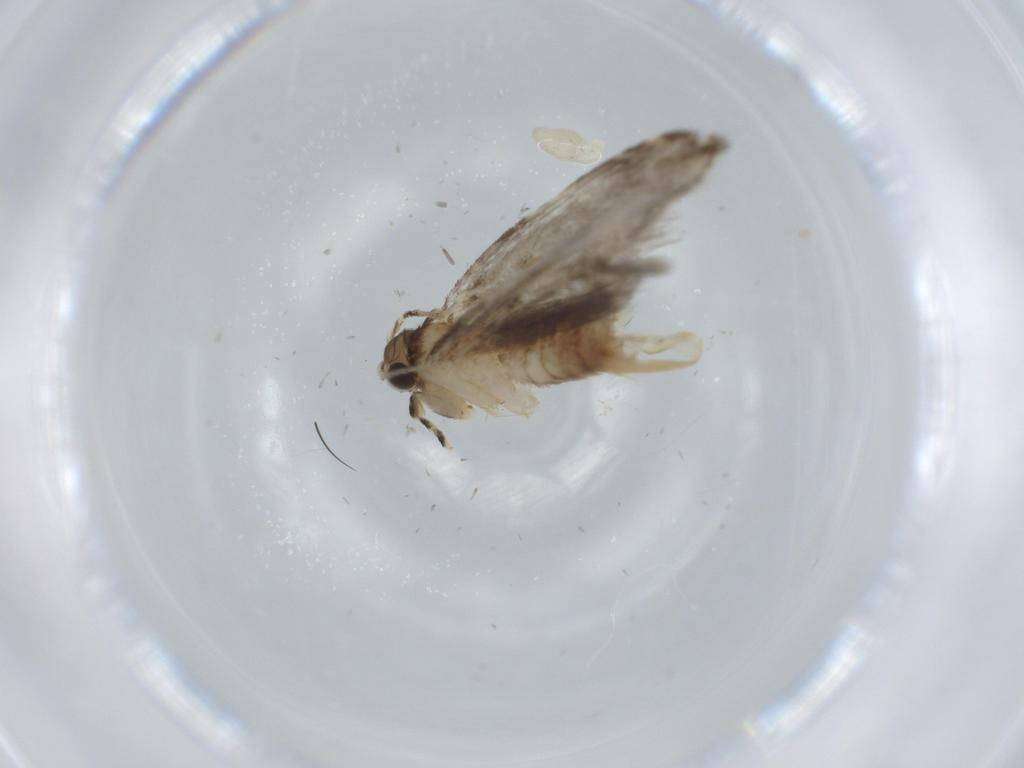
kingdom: Animalia
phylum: Arthropoda
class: Insecta
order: Lepidoptera
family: Tineidae
